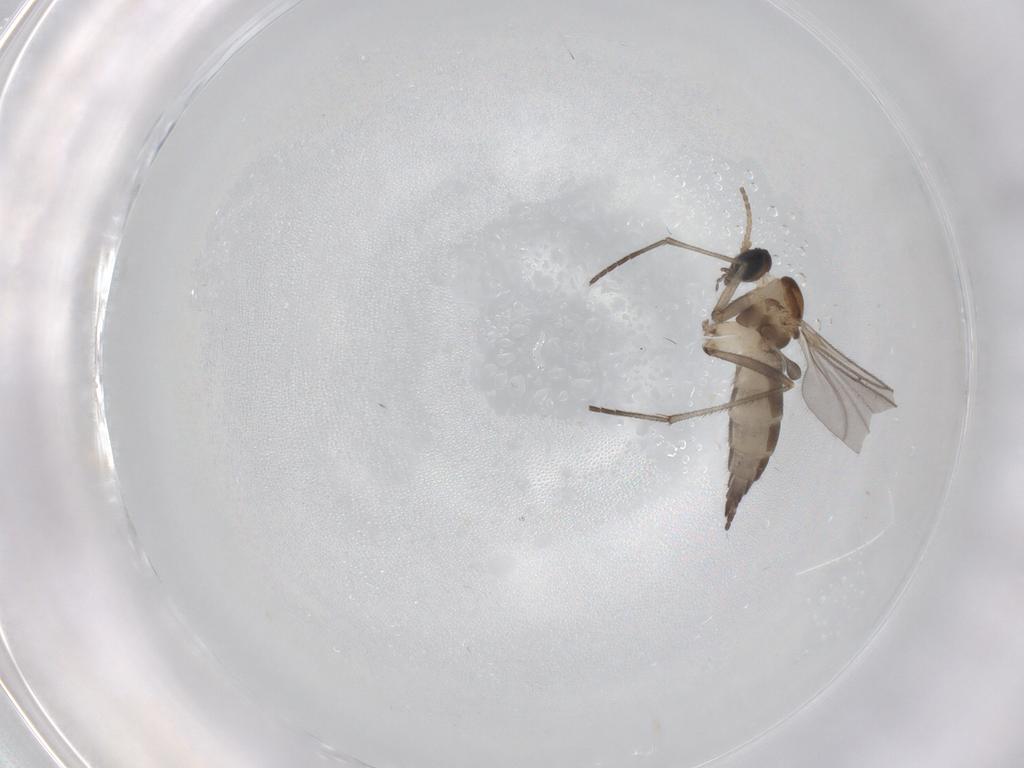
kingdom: Animalia
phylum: Arthropoda
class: Insecta
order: Diptera
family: Sciaridae
